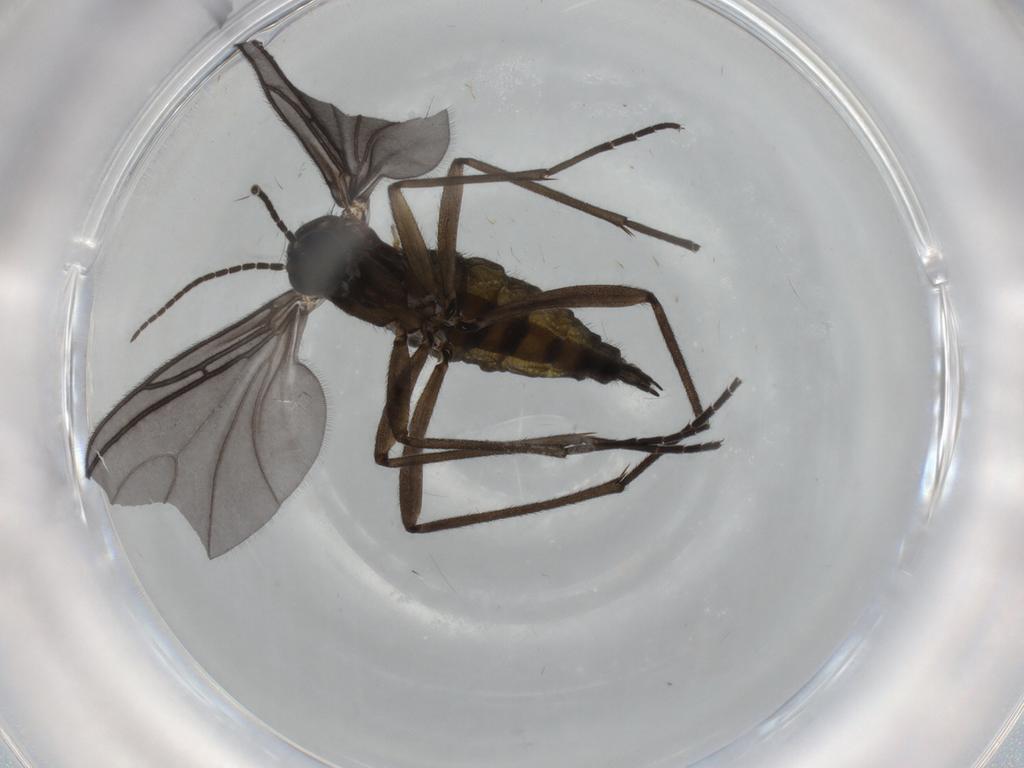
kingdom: Animalia
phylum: Arthropoda
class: Insecta
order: Diptera
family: Sciaridae
